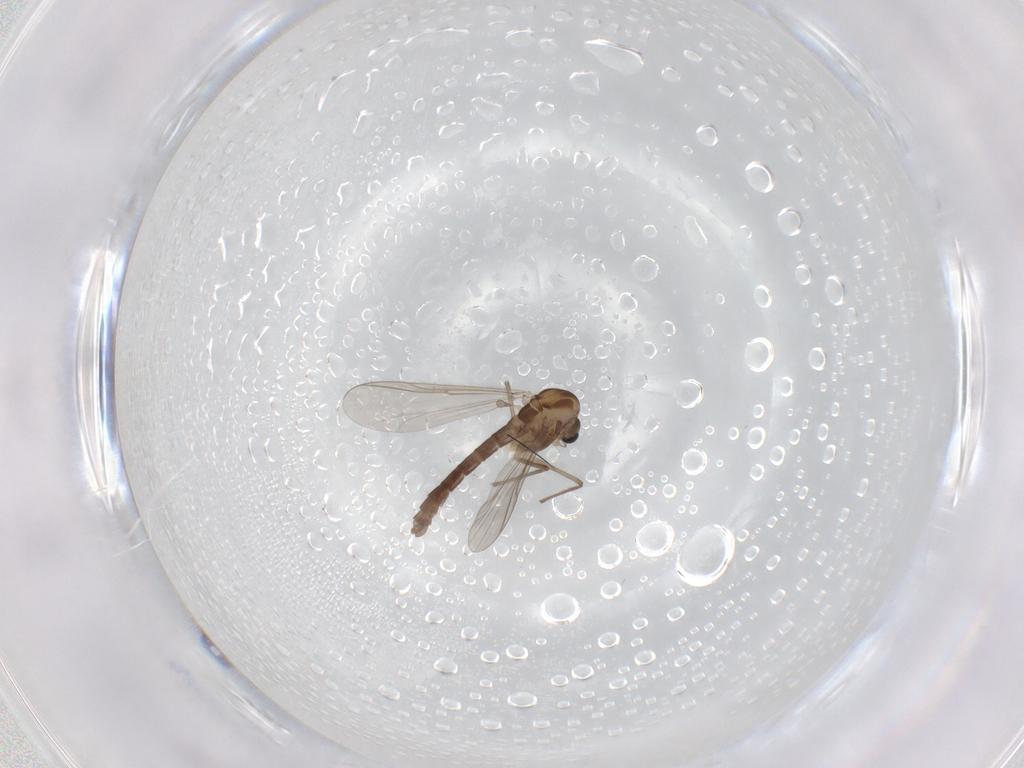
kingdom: Animalia
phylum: Arthropoda
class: Insecta
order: Diptera
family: Chironomidae
